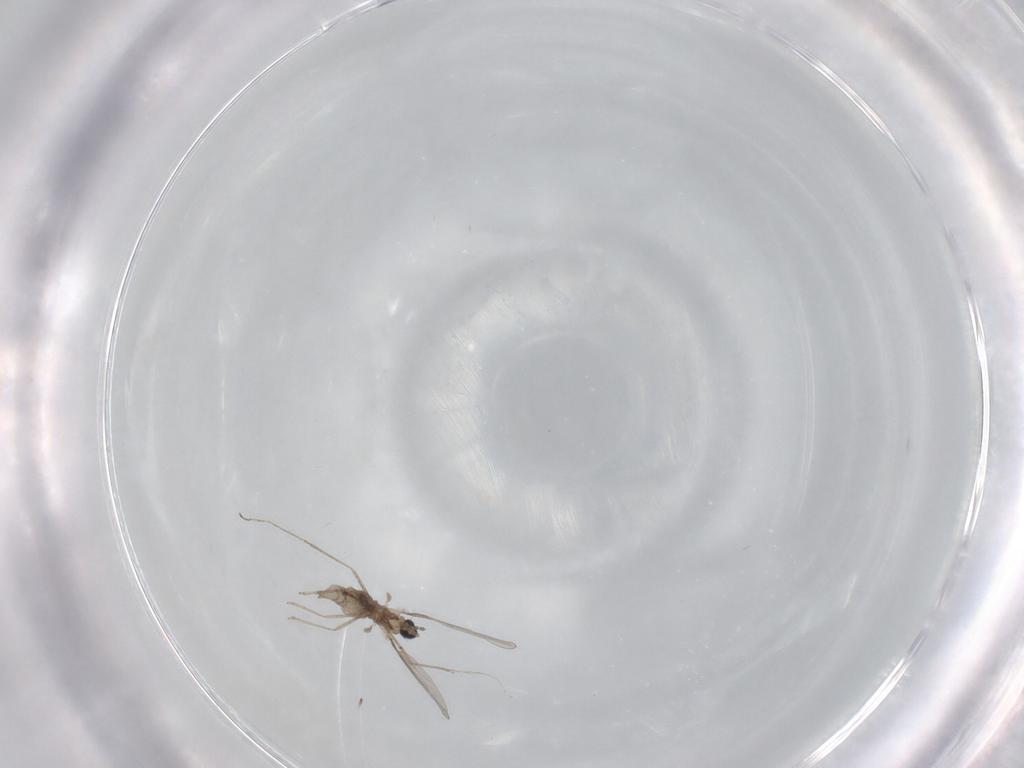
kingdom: Animalia
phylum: Arthropoda
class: Insecta
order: Diptera
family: Cecidomyiidae
